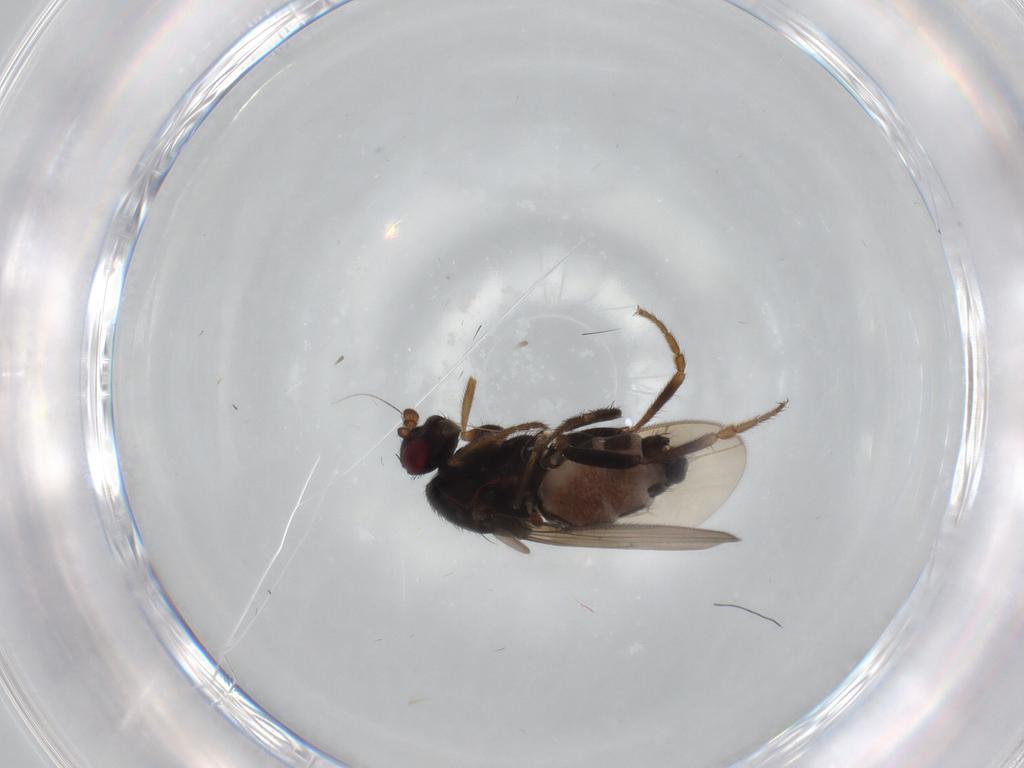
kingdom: Animalia
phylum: Arthropoda
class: Insecta
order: Diptera
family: Sphaeroceridae
